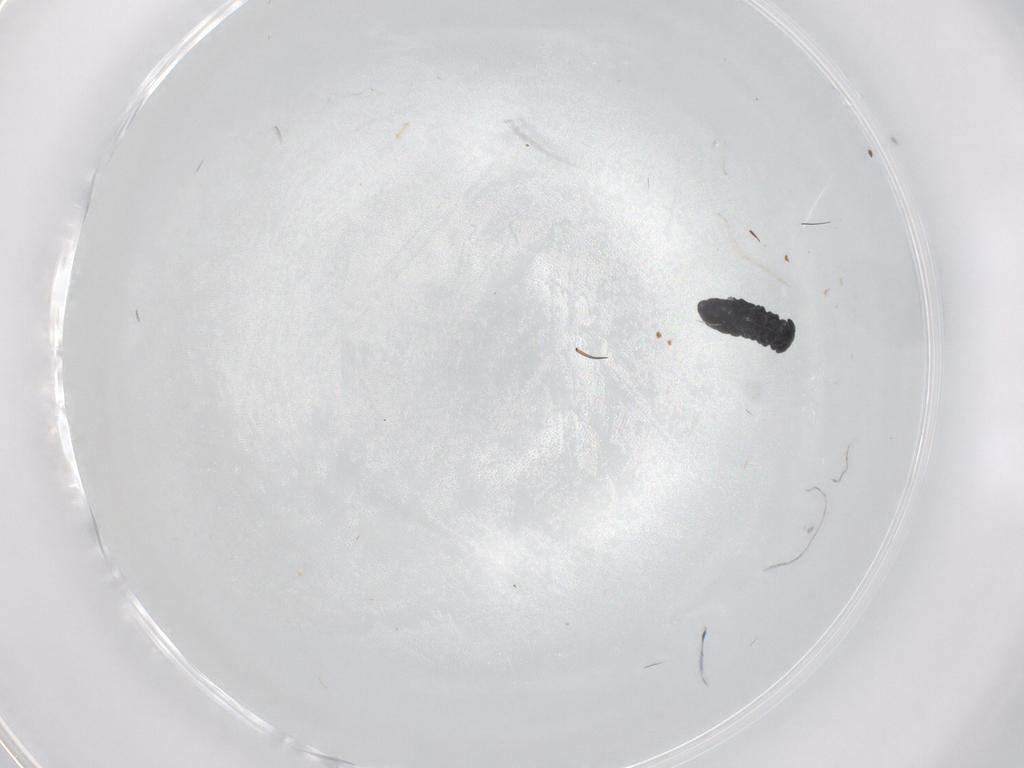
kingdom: Animalia
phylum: Arthropoda
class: Collembola
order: Poduromorpha
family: Hypogastruridae
